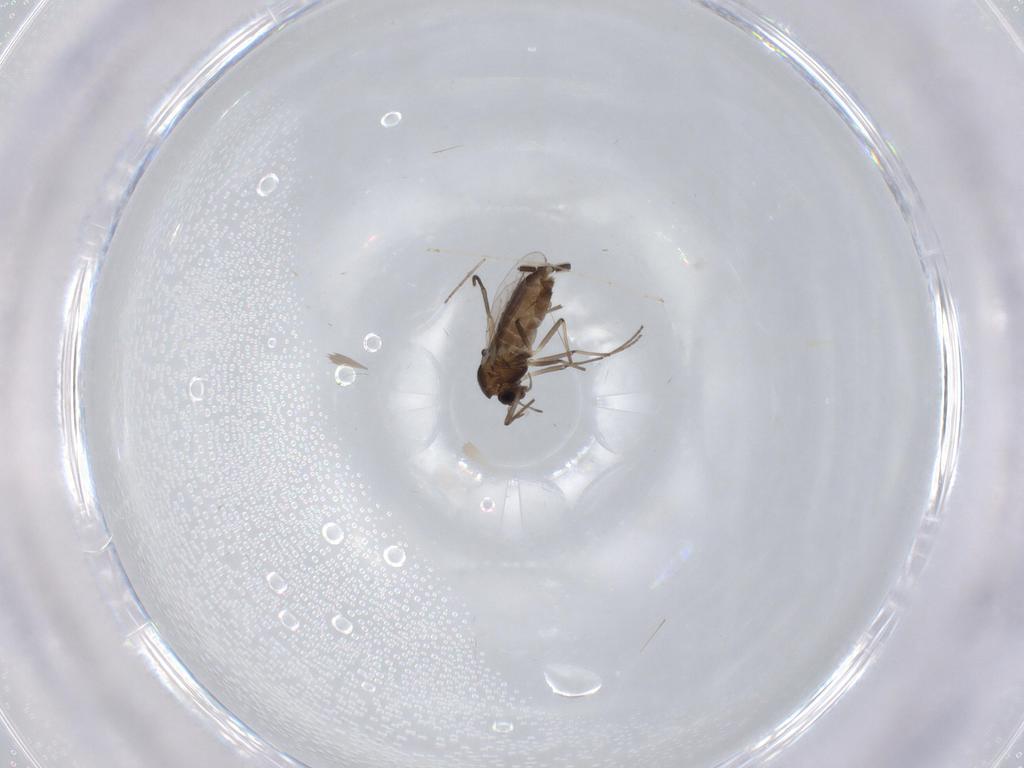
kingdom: Animalia
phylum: Arthropoda
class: Insecta
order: Diptera
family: Chironomidae
